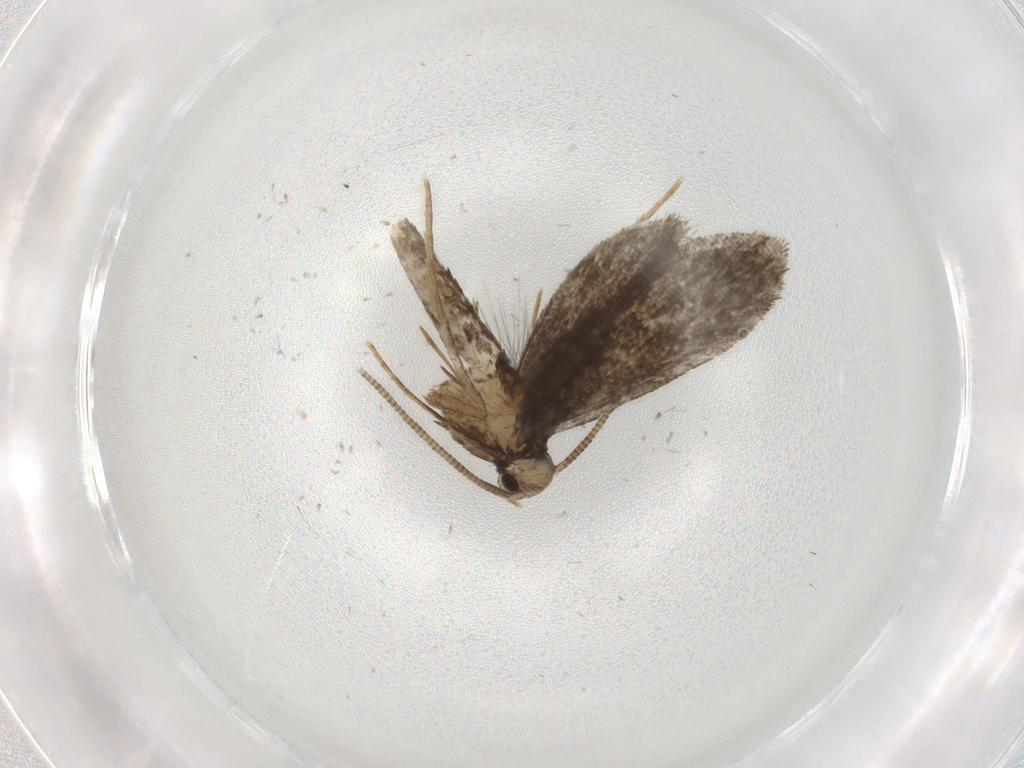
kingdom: Animalia
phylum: Arthropoda
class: Insecta
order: Lepidoptera
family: Nymphalidae
